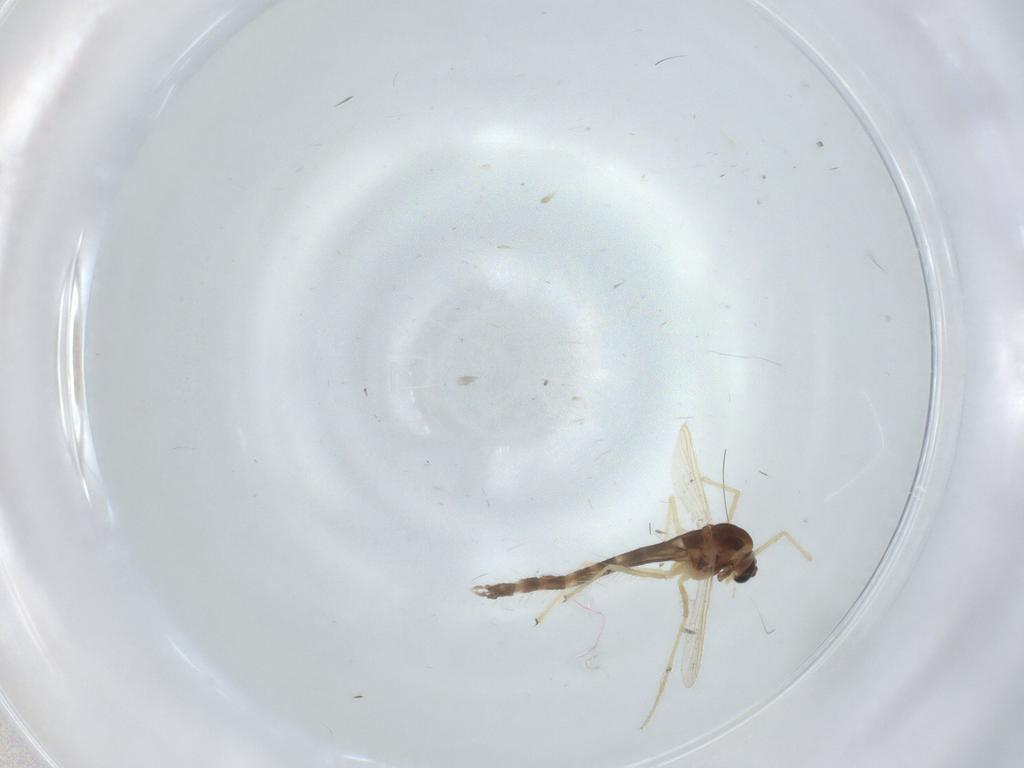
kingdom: Animalia
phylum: Arthropoda
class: Insecta
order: Diptera
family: Chironomidae
